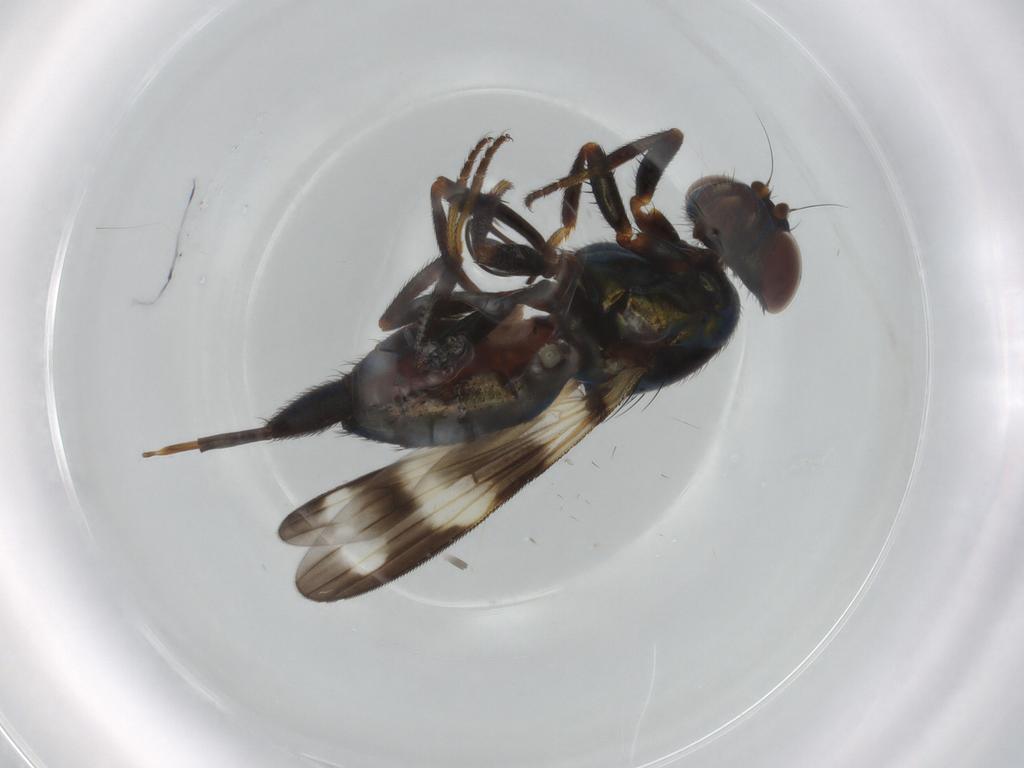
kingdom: Animalia
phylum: Arthropoda
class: Insecta
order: Diptera
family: Ulidiidae
